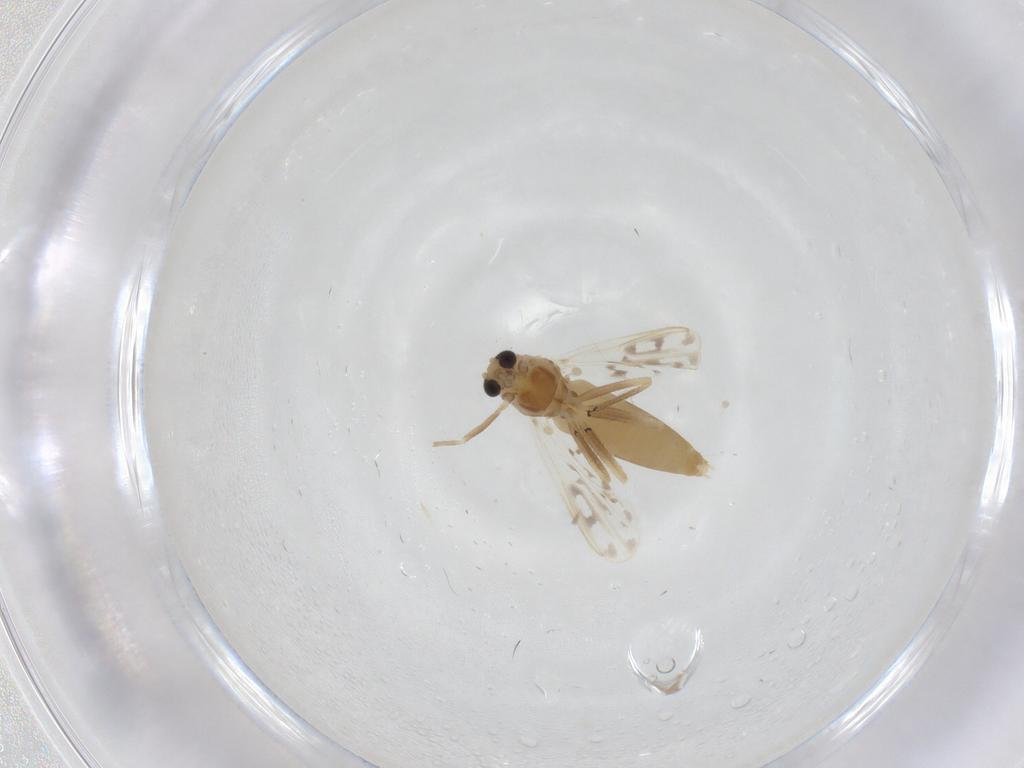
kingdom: Animalia
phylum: Arthropoda
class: Insecta
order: Diptera
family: Chironomidae
